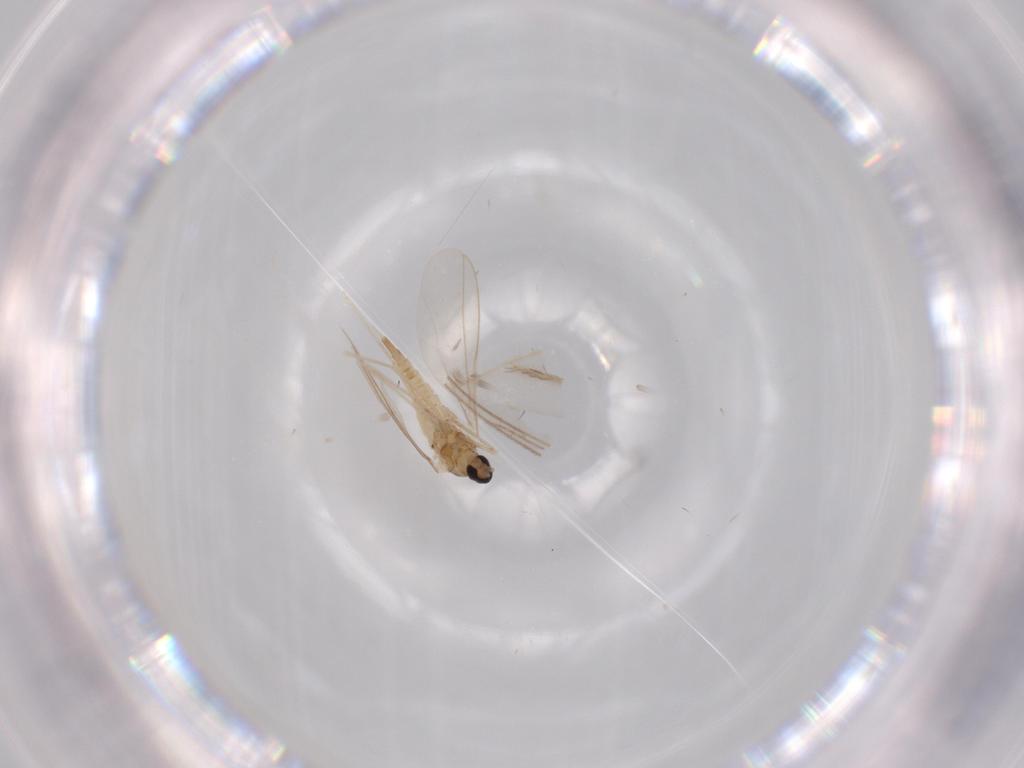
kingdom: Animalia
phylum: Arthropoda
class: Insecta
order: Diptera
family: Cecidomyiidae
